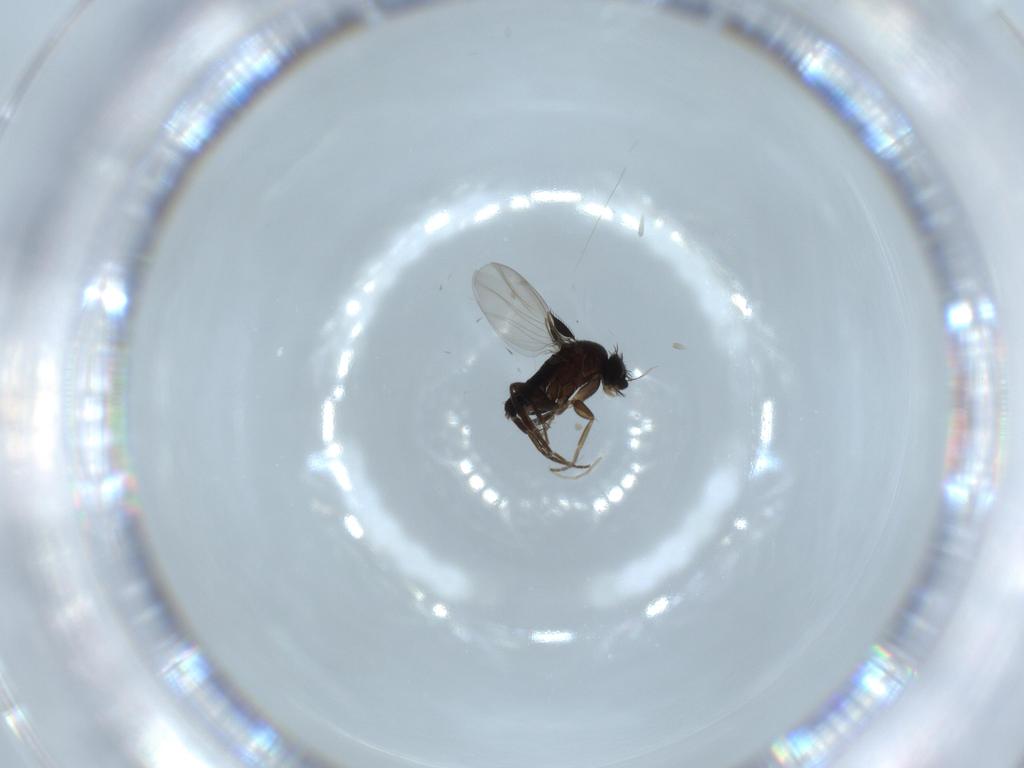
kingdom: Animalia
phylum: Arthropoda
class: Insecta
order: Diptera
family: Phoridae
